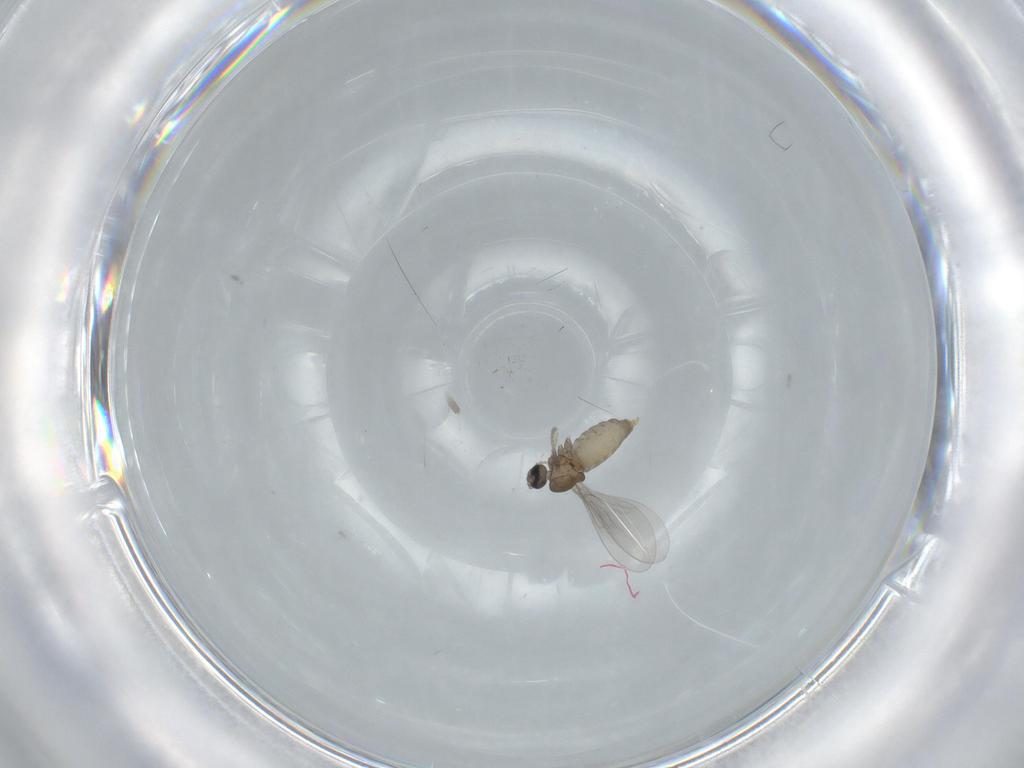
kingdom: Animalia
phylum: Arthropoda
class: Insecta
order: Diptera
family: Cecidomyiidae
